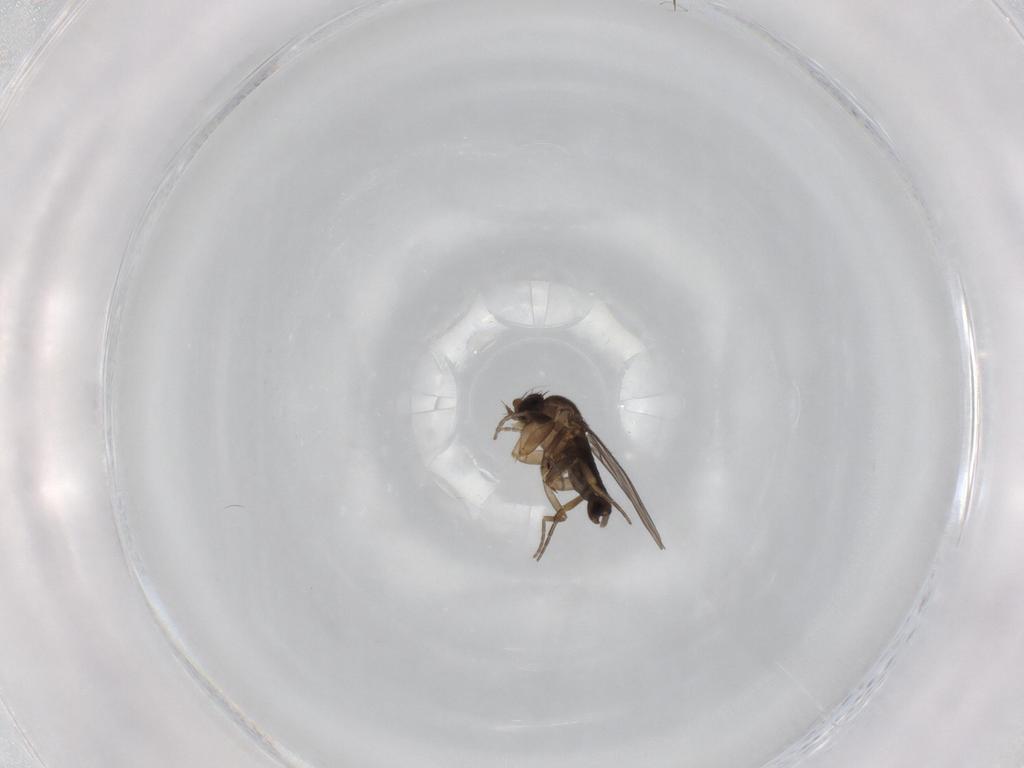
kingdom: Animalia
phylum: Arthropoda
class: Insecta
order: Diptera
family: Phoridae
